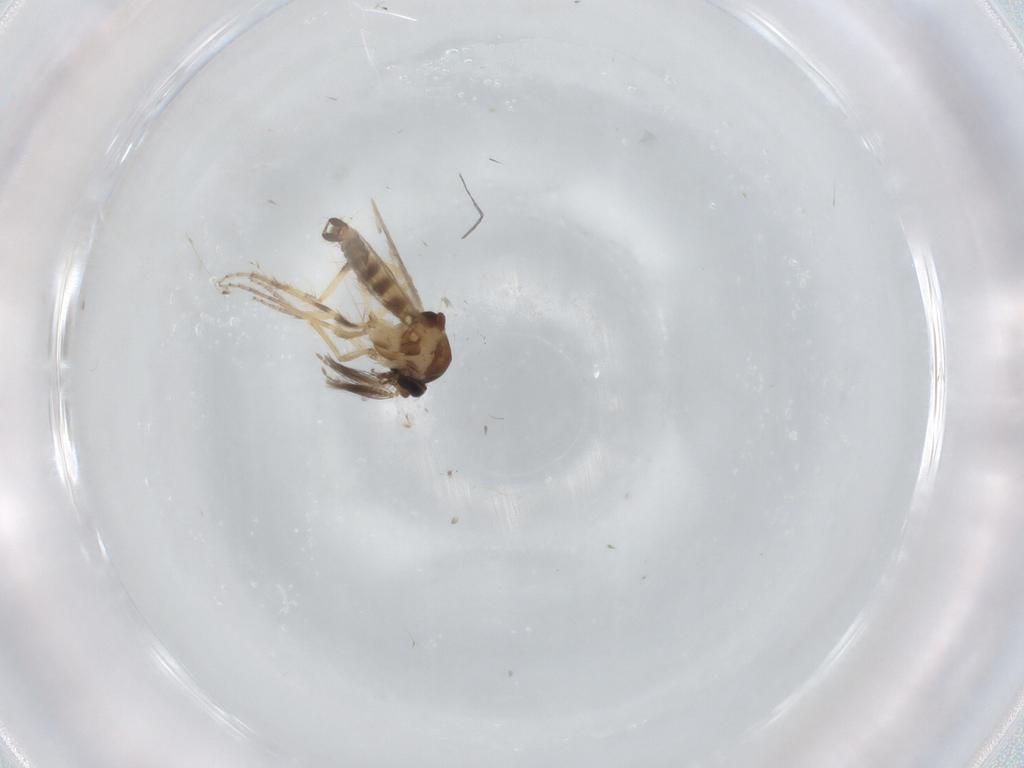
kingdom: Animalia
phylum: Arthropoda
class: Insecta
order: Diptera
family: Ceratopogonidae
